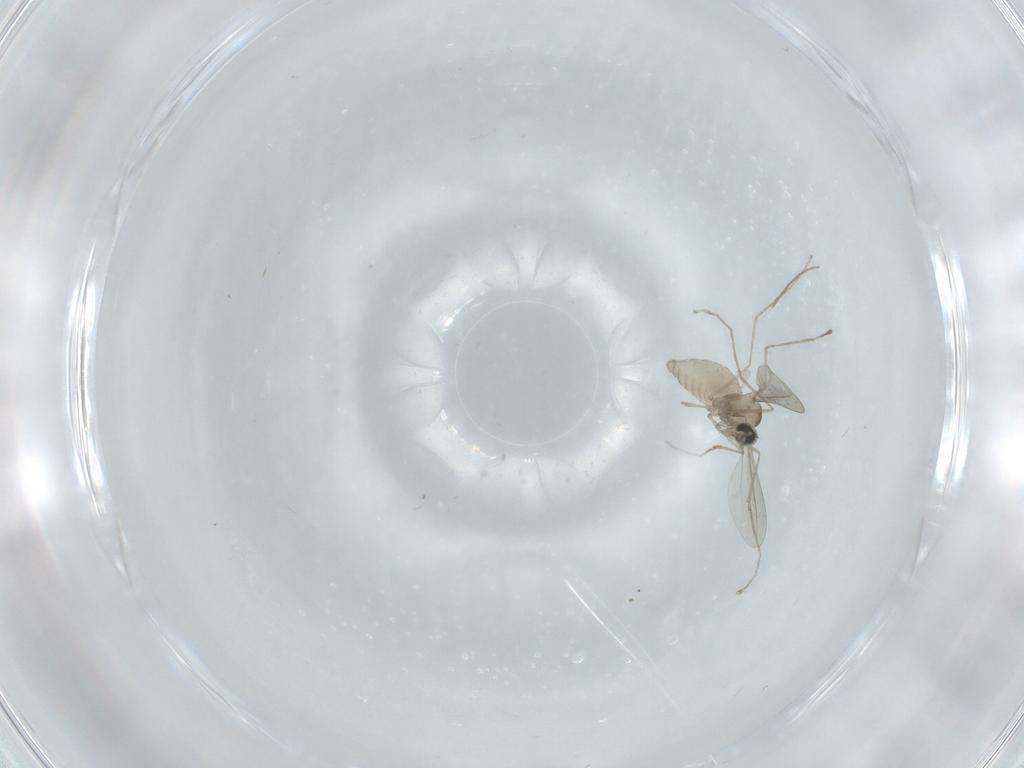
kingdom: Animalia
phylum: Arthropoda
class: Insecta
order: Diptera
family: Cecidomyiidae
